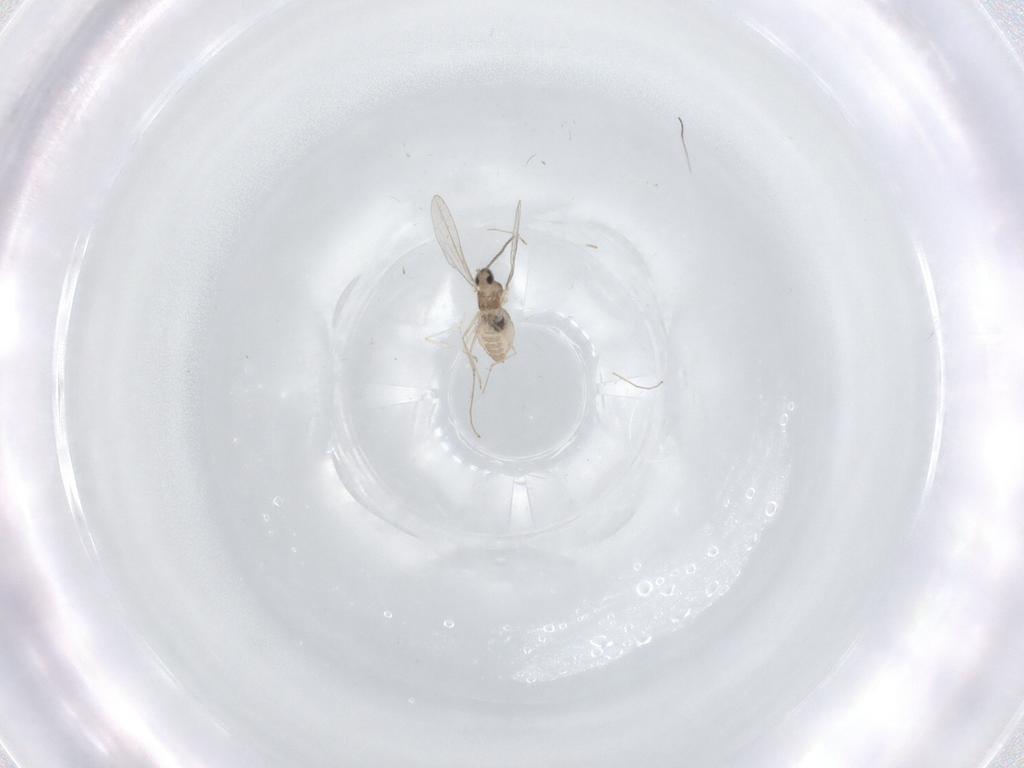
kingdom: Animalia
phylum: Arthropoda
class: Insecta
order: Diptera
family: Cecidomyiidae
